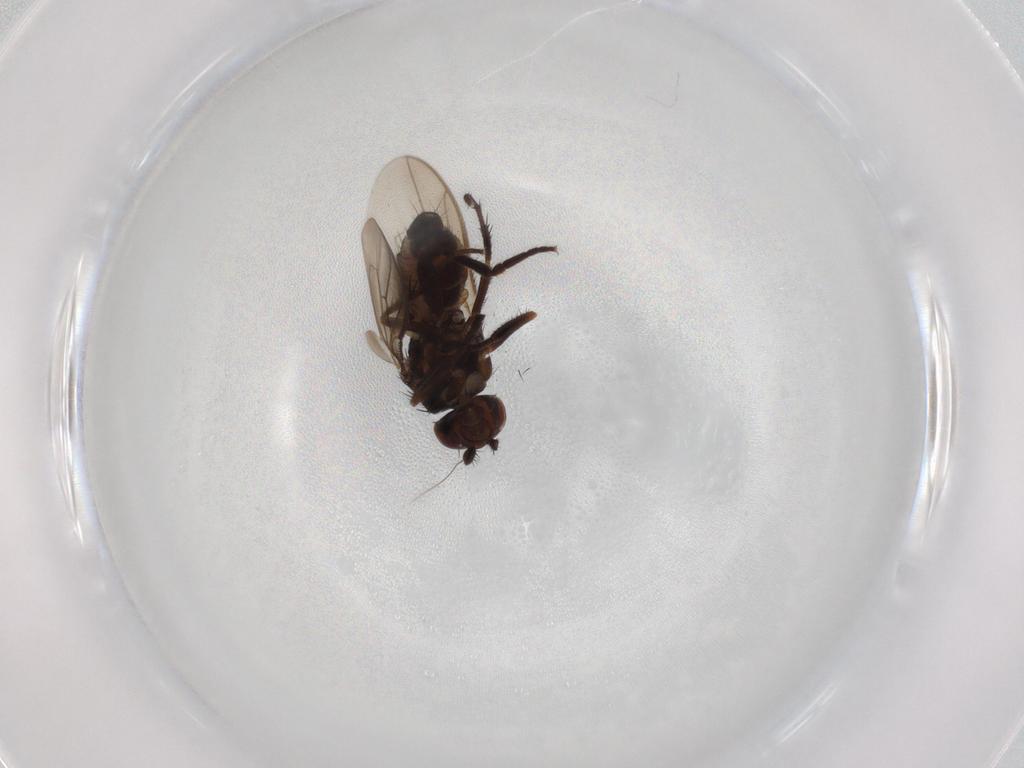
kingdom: Animalia
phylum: Arthropoda
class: Insecta
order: Diptera
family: Sphaeroceridae
